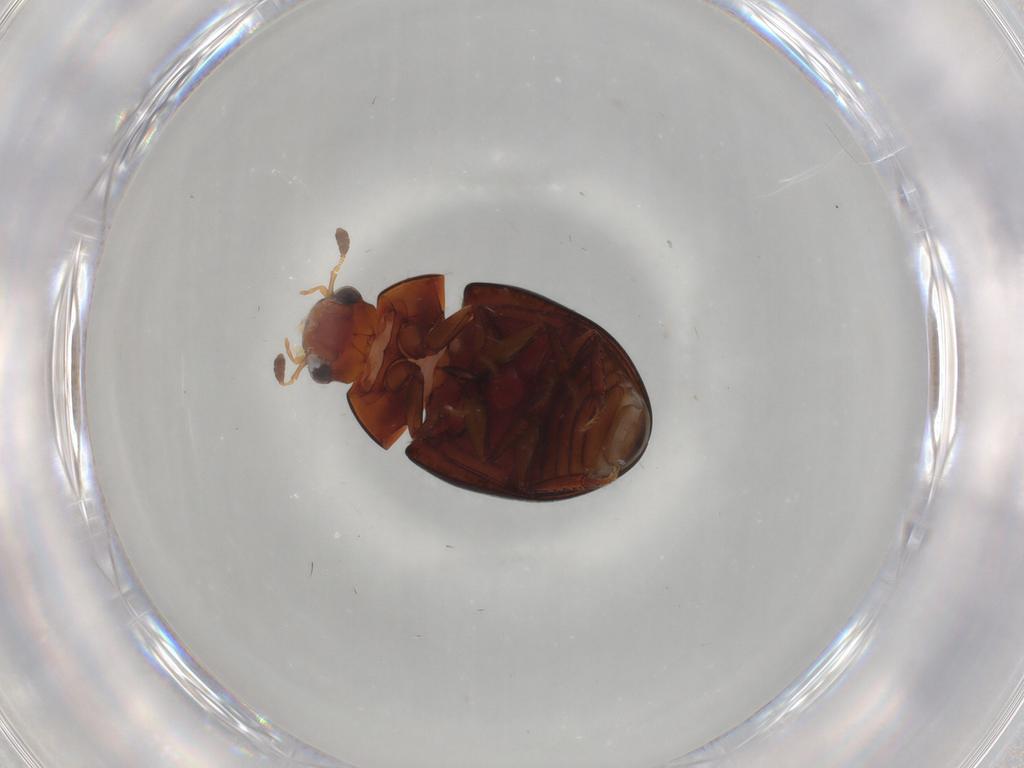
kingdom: Animalia
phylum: Arthropoda
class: Insecta
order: Coleoptera
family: Hydrophilidae
